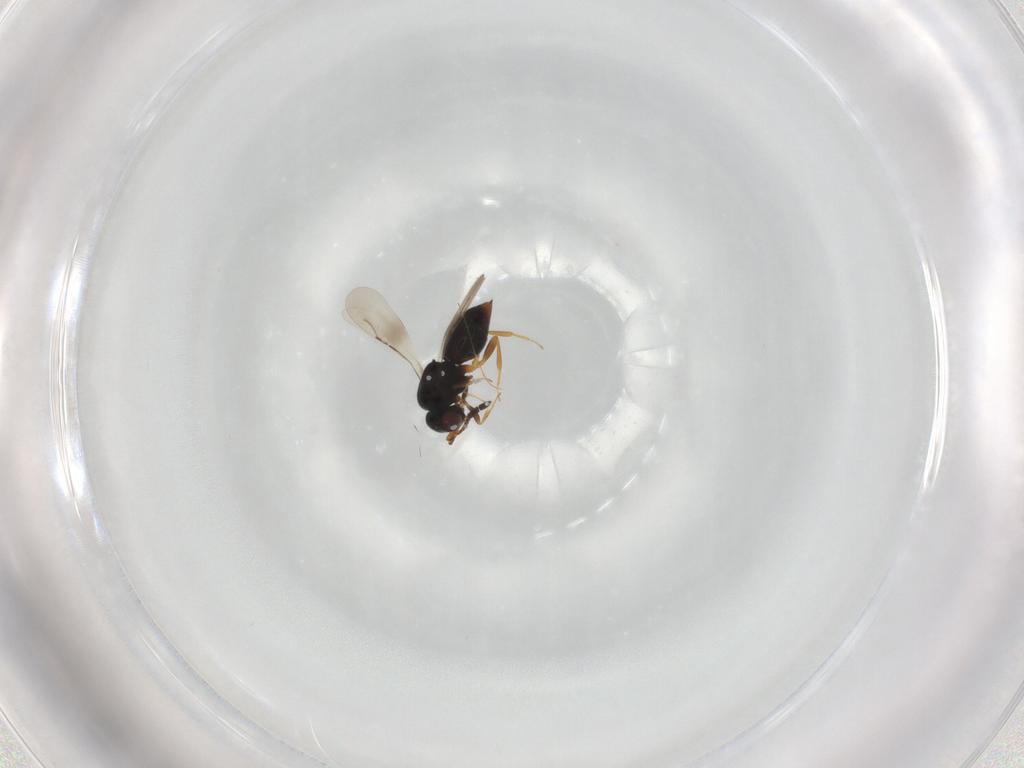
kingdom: Animalia
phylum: Arthropoda
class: Insecta
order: Hymenoptera
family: Vespidae
